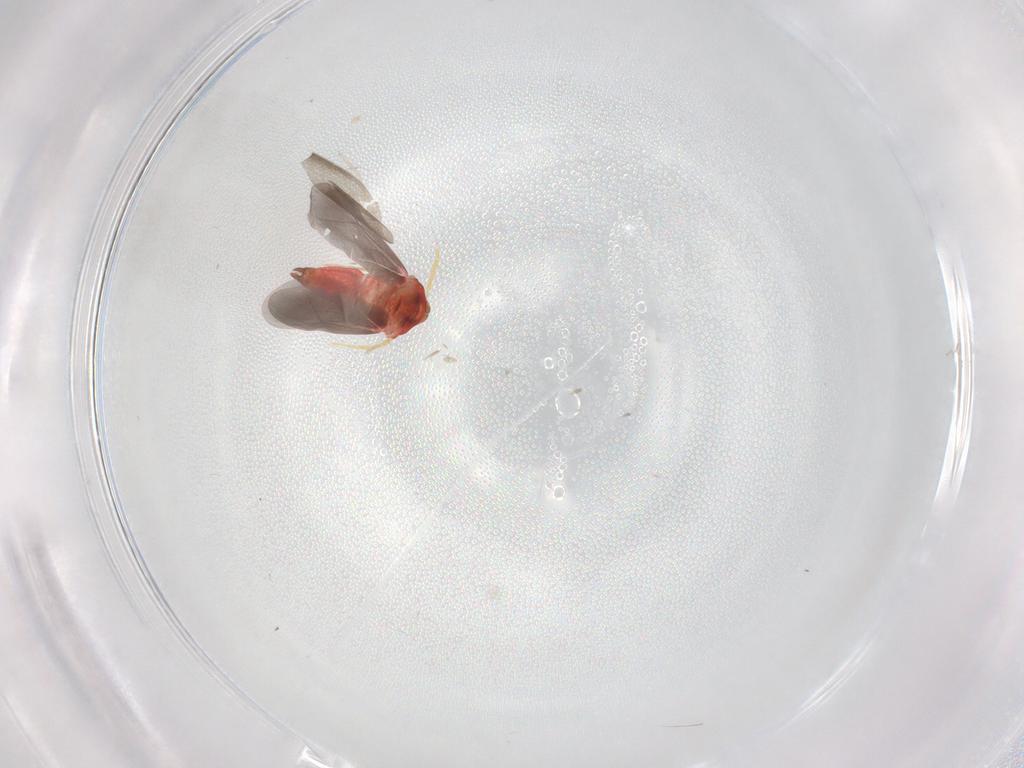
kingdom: Animalia
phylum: Arthropoda
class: Insecta
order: Hemiptera
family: Aleyrodidae
